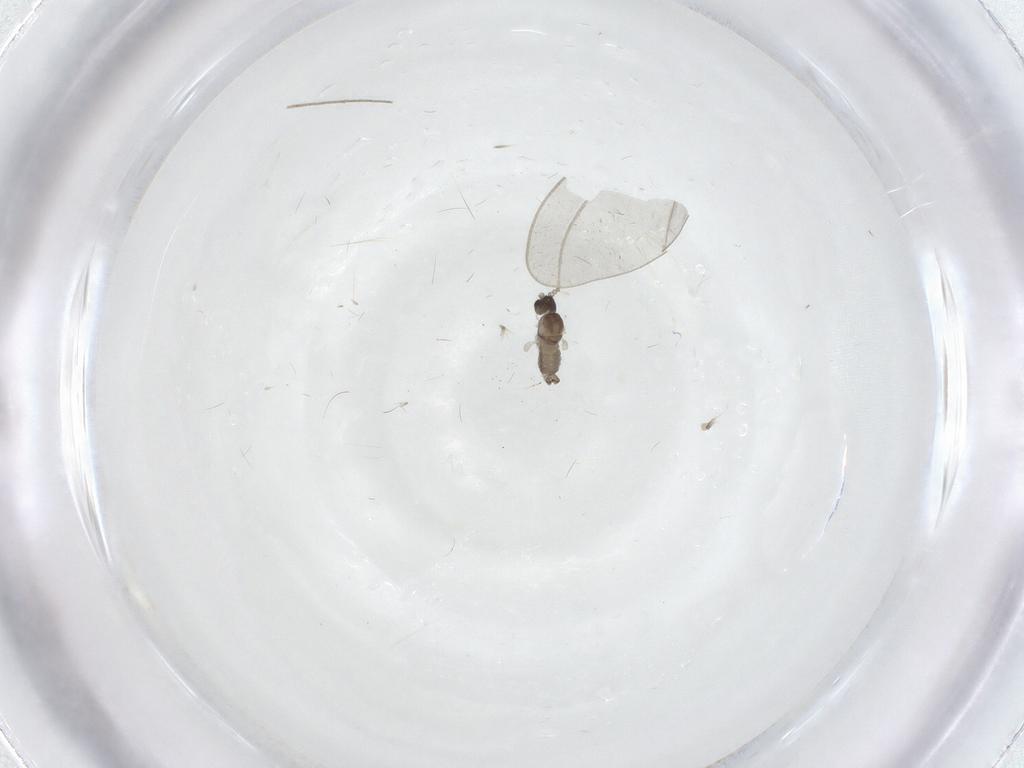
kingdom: Animalia
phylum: Arthropoda
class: Insecta
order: Diptera
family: Cecidomyiidae
